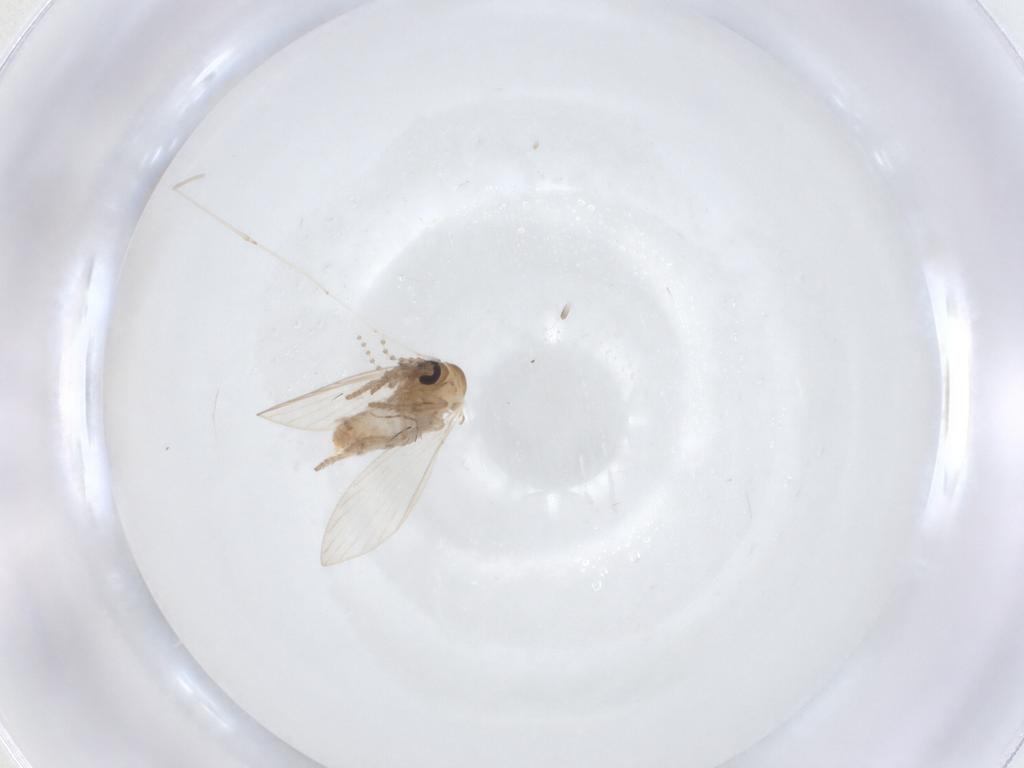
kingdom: Animalia
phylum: Arthropoda
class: Insecta
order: Diptera
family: Psychodidae
